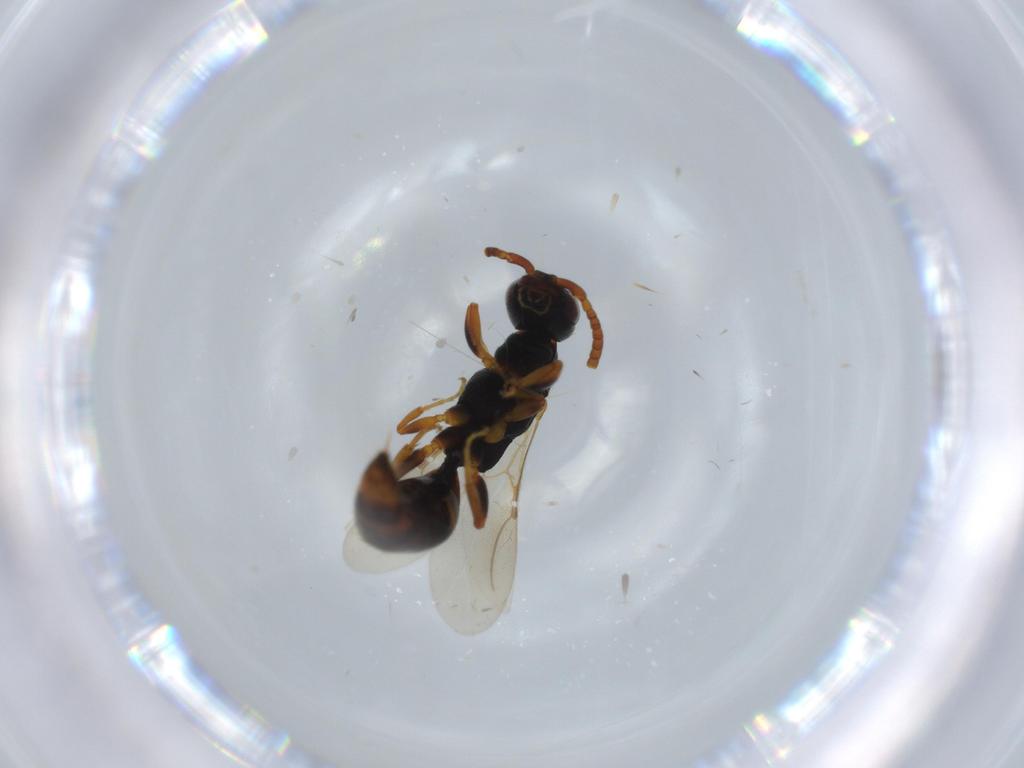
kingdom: Animalia
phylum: Arthropoda
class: Insecta
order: Hymenoptera
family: Bethylidae
